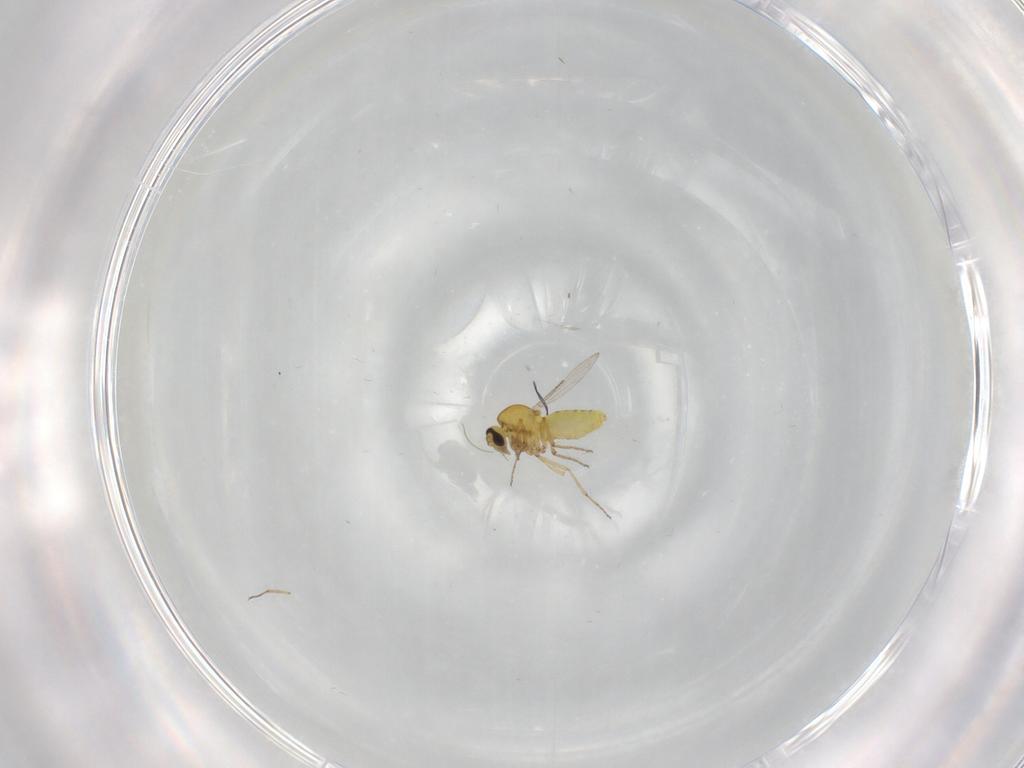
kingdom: Animalia
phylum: Arthropoda
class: Insecta
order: Diptera
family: Ceratopogonidae
